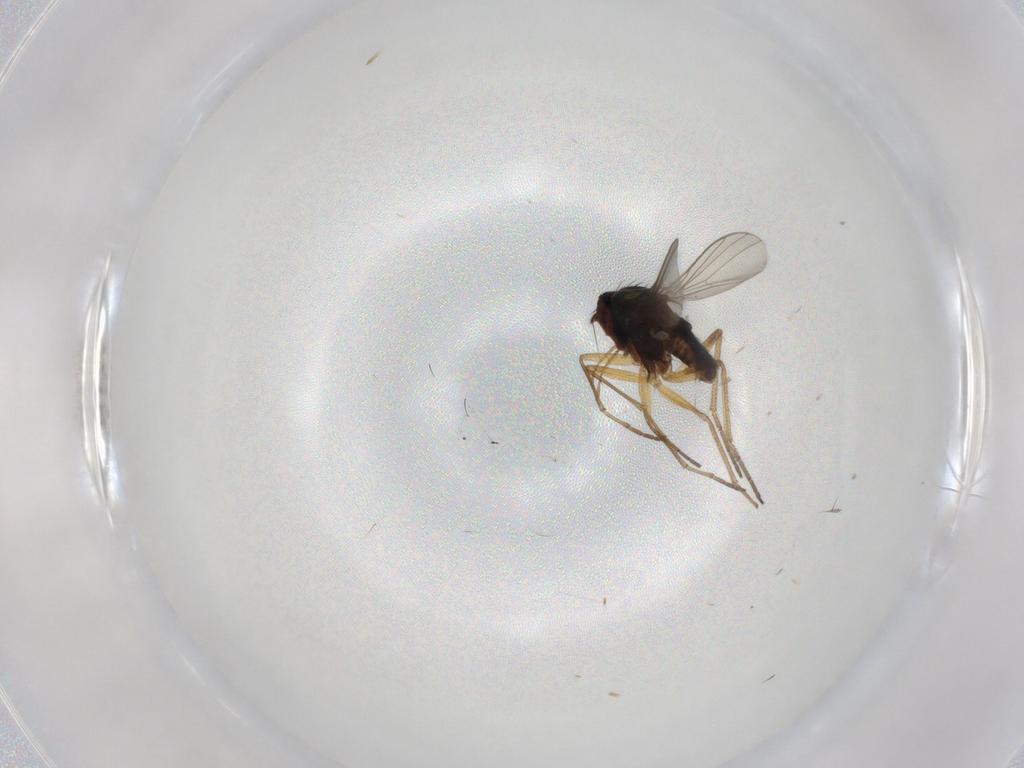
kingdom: Animalia
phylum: Arthropoda
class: Insecta
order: Diptera
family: Dolichopodidae
